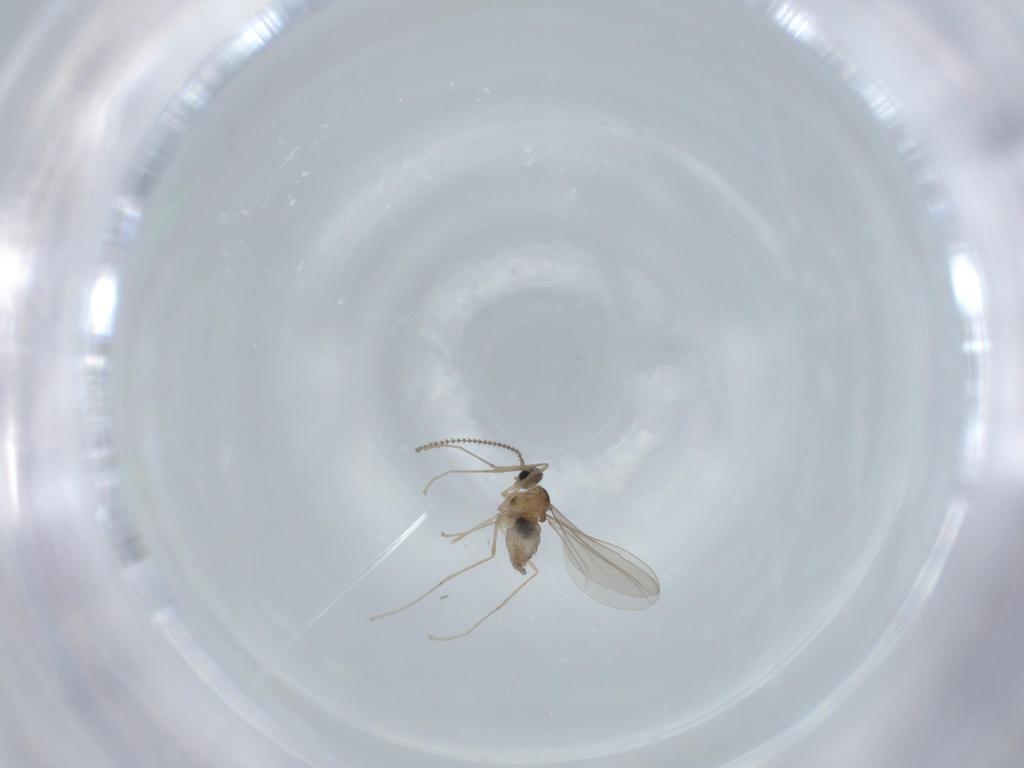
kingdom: Animalia
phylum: Arthropoda
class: Insecta
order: Diptera
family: Cecidomyiidae
